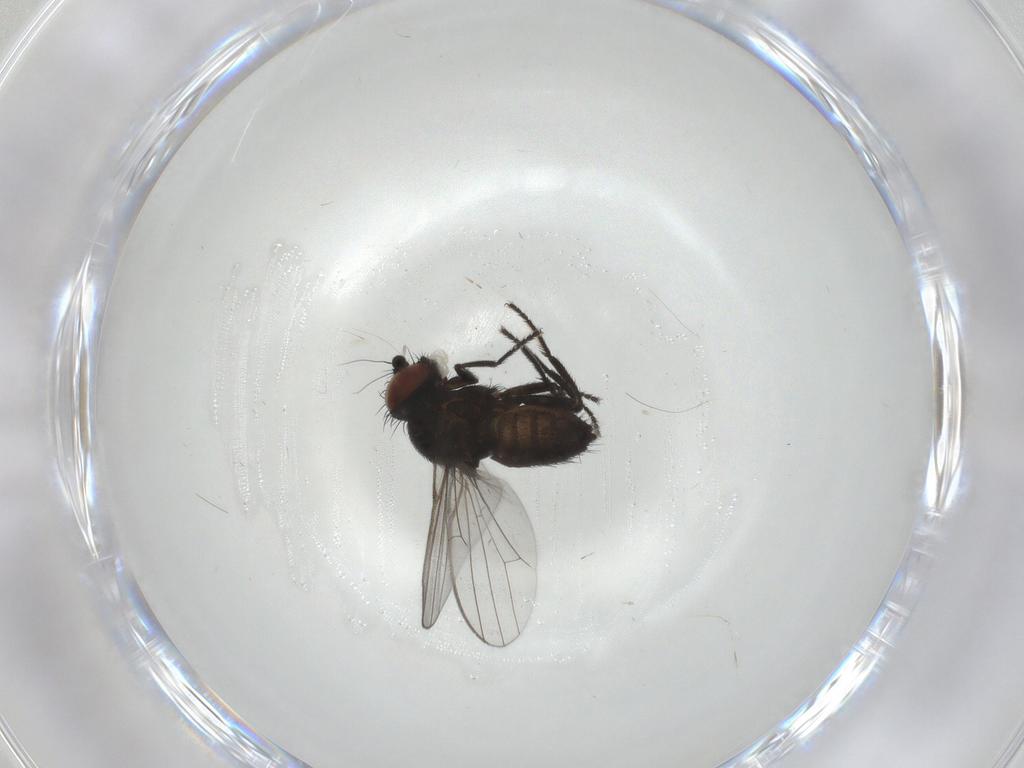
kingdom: Animalia
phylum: Arthropoda
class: Insecta
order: Diptera
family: Milichiidae
